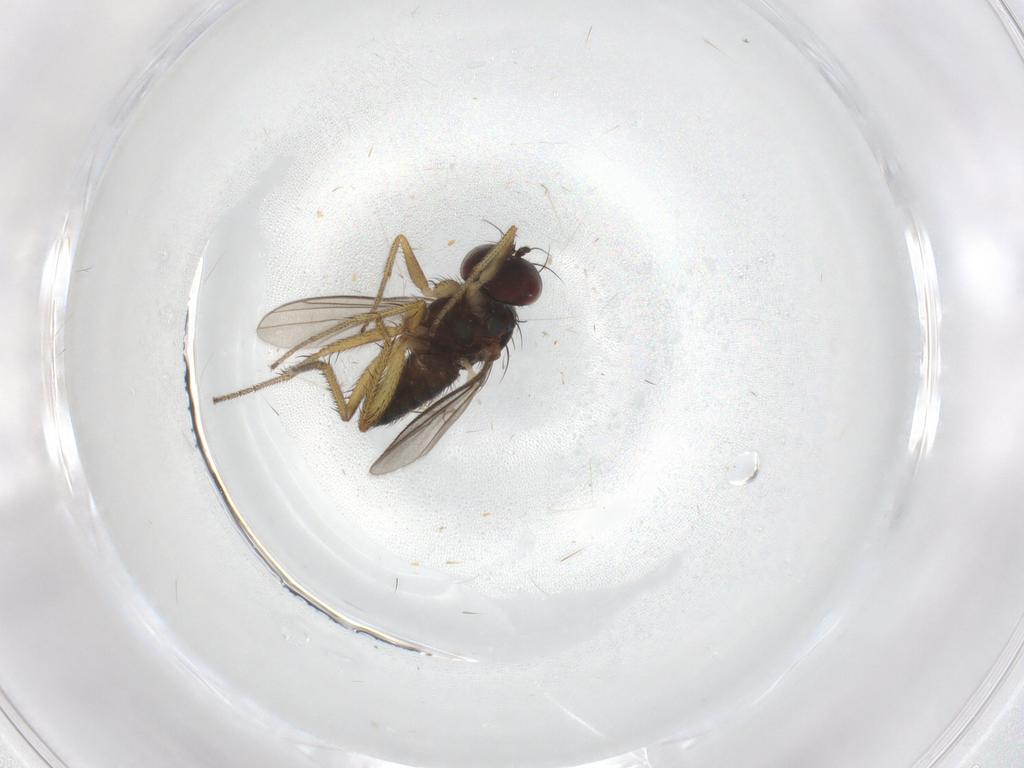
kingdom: Animalia
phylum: Arthropoda
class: Insecta
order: Diptera
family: Chironomidae
